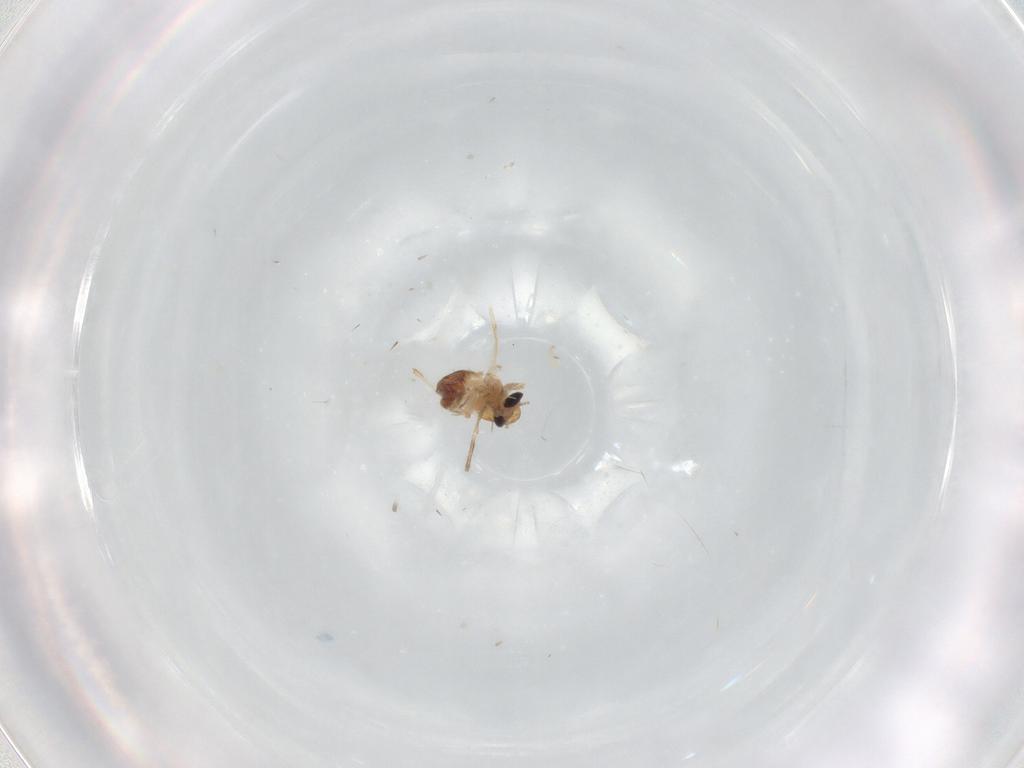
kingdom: Animalia
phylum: Arthropoda
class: Insecta
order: Diptera
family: Chironomidae
